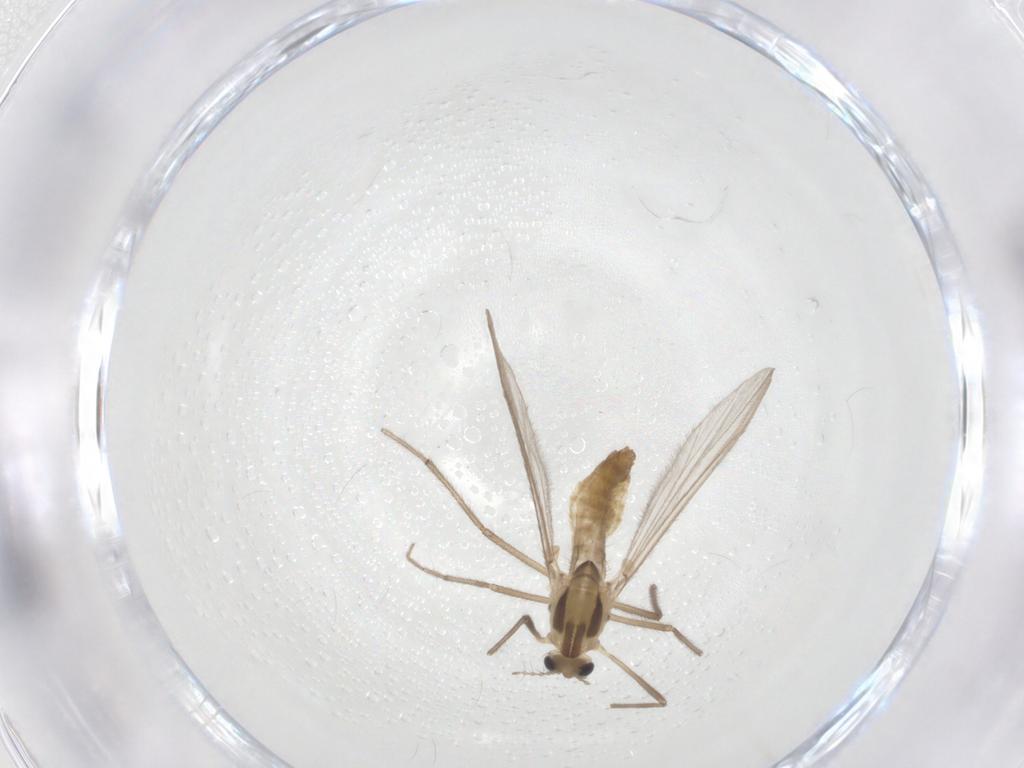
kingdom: Animalia
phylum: Arthropoda
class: Insecta
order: Diptera
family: Chironomidae
